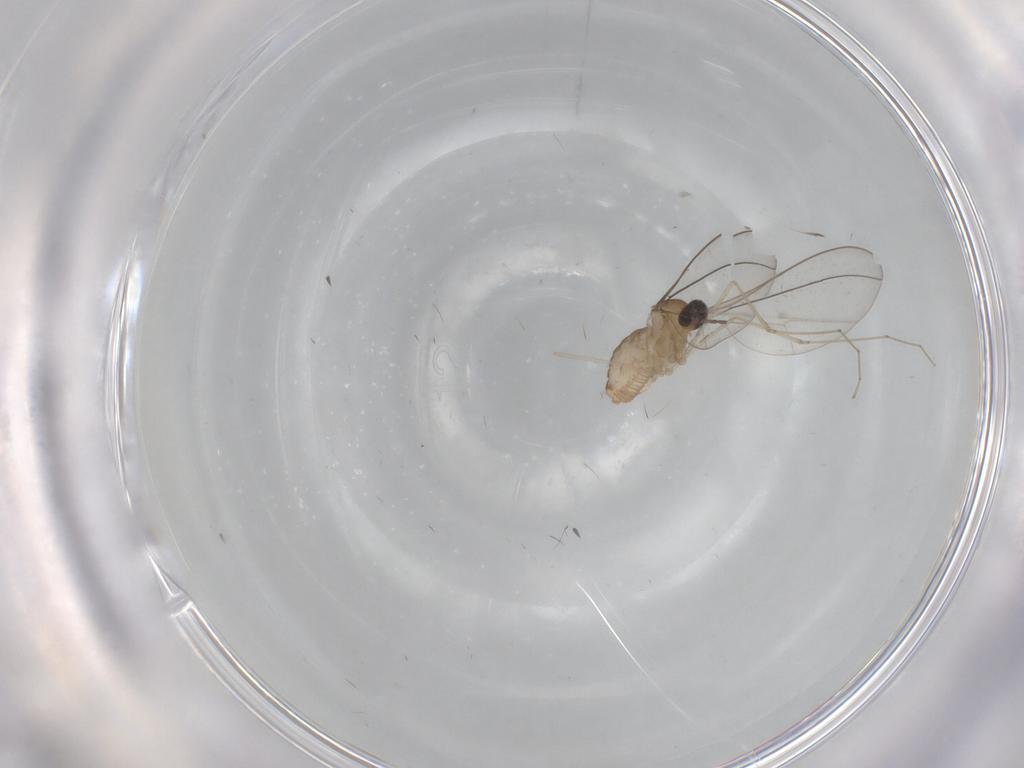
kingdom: Animalia
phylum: Arthropoda
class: Insecta
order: Diptera
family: Cecidomyiidae
